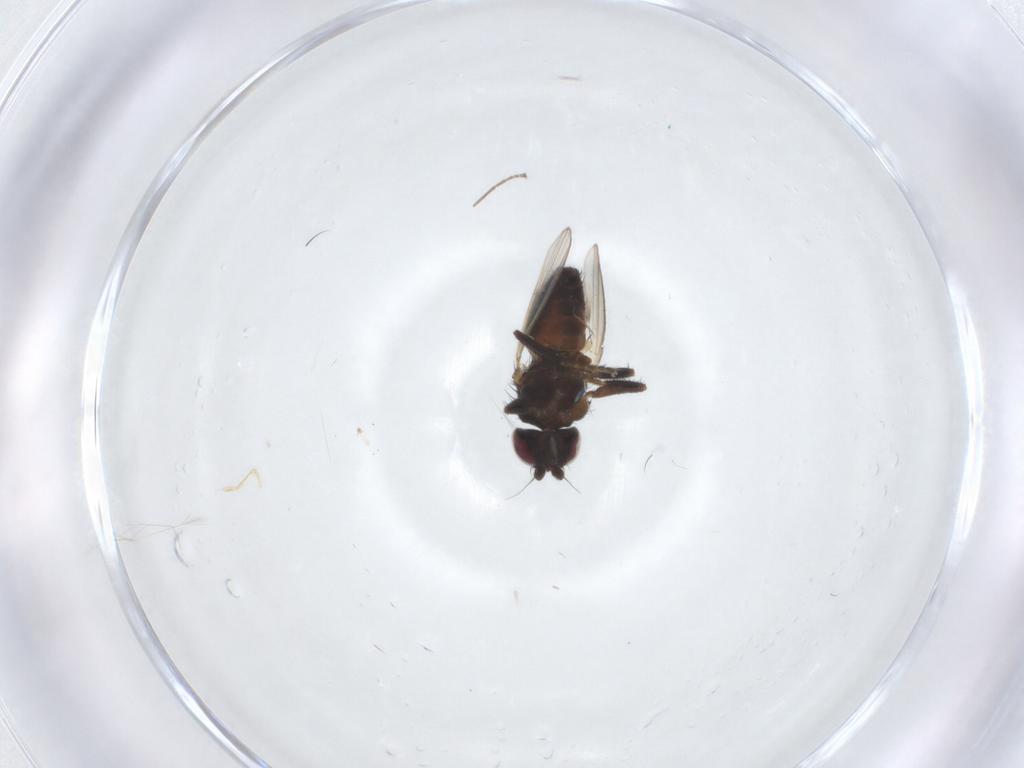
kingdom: Animalia
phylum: Arthropoda
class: Insecta
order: Diptera
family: Milichiidae
